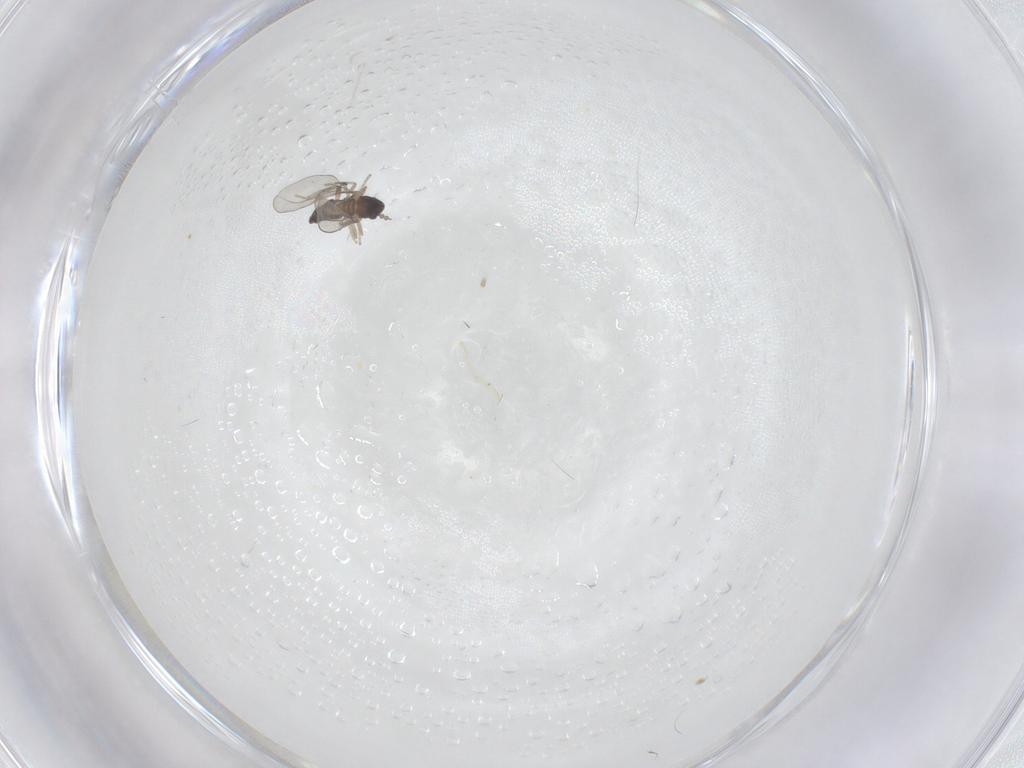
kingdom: Animalia
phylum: Arthropoda
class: Insecta
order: Diptera
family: Cecidomyiidae
